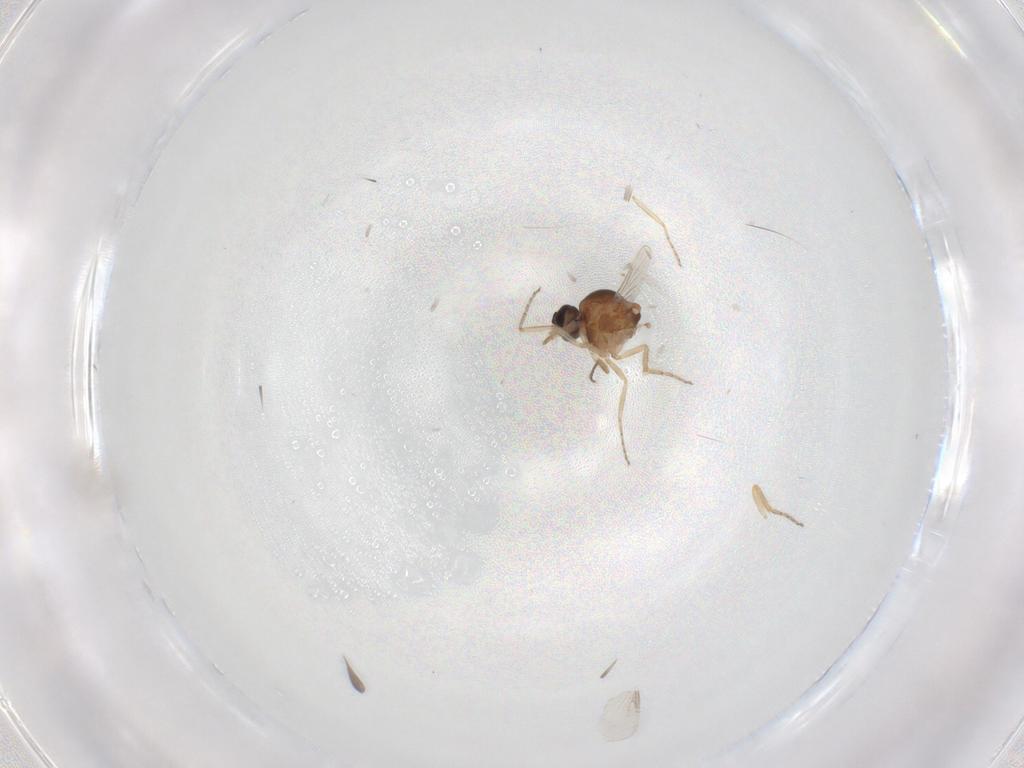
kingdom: Animalia
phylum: Arthropoda
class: Insecta
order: Diptera
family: Ceratopogonidae
